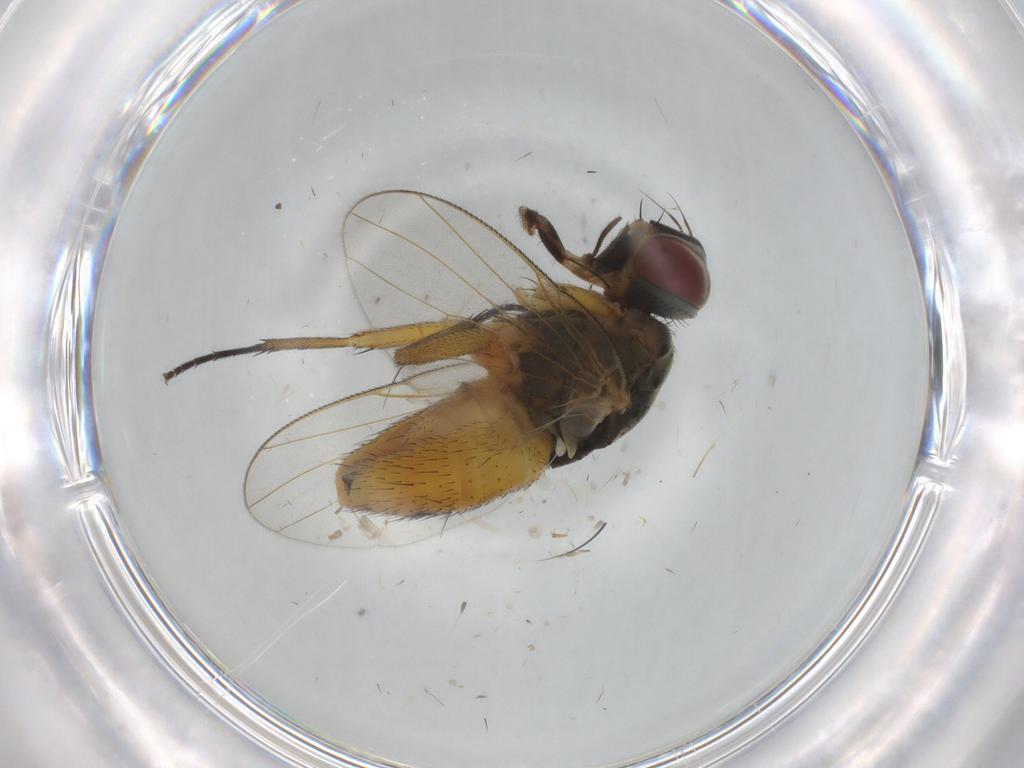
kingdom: Animalia
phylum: Arthropoda
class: Insecta
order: Diptera
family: Muscidae
